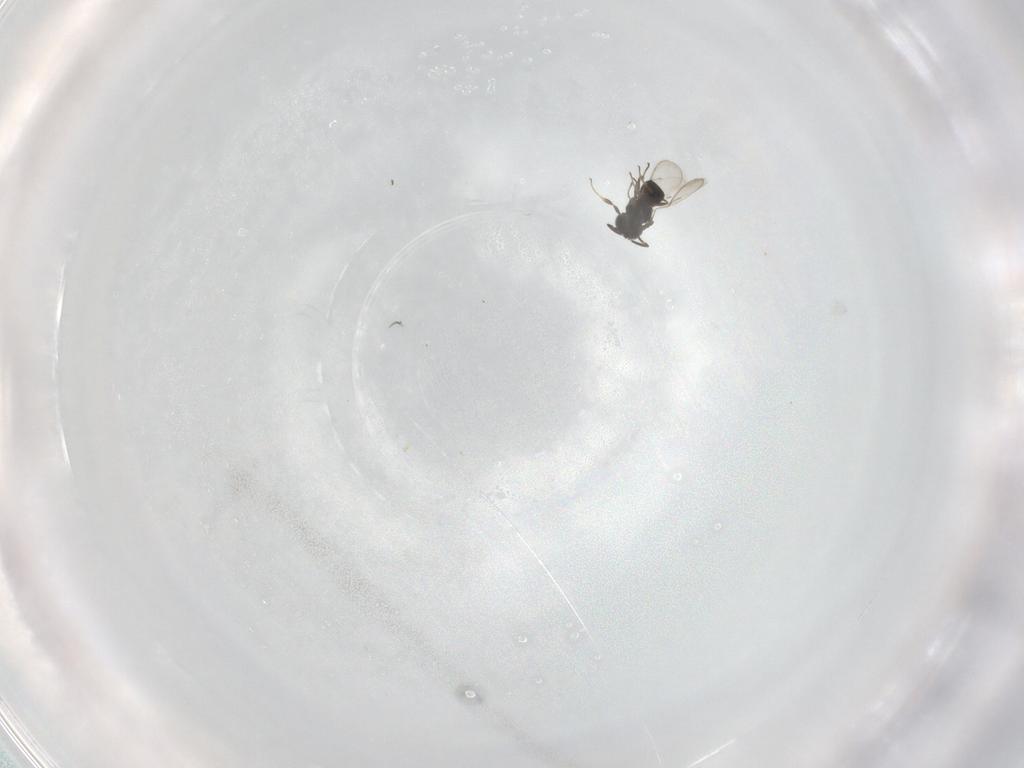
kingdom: Animalia
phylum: Arthropoda
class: Insecta
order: Hymenoptera
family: Scelionidae
